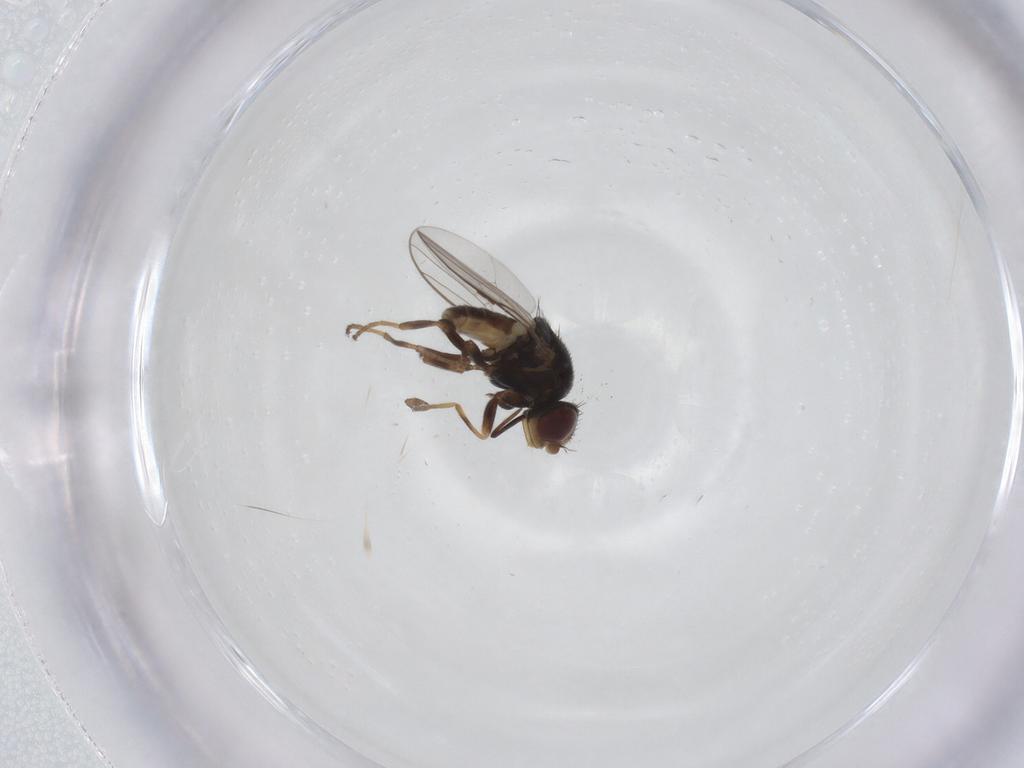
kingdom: Animalia
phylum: Arthropoda
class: Insecta
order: Diptera
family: Chloropidae
